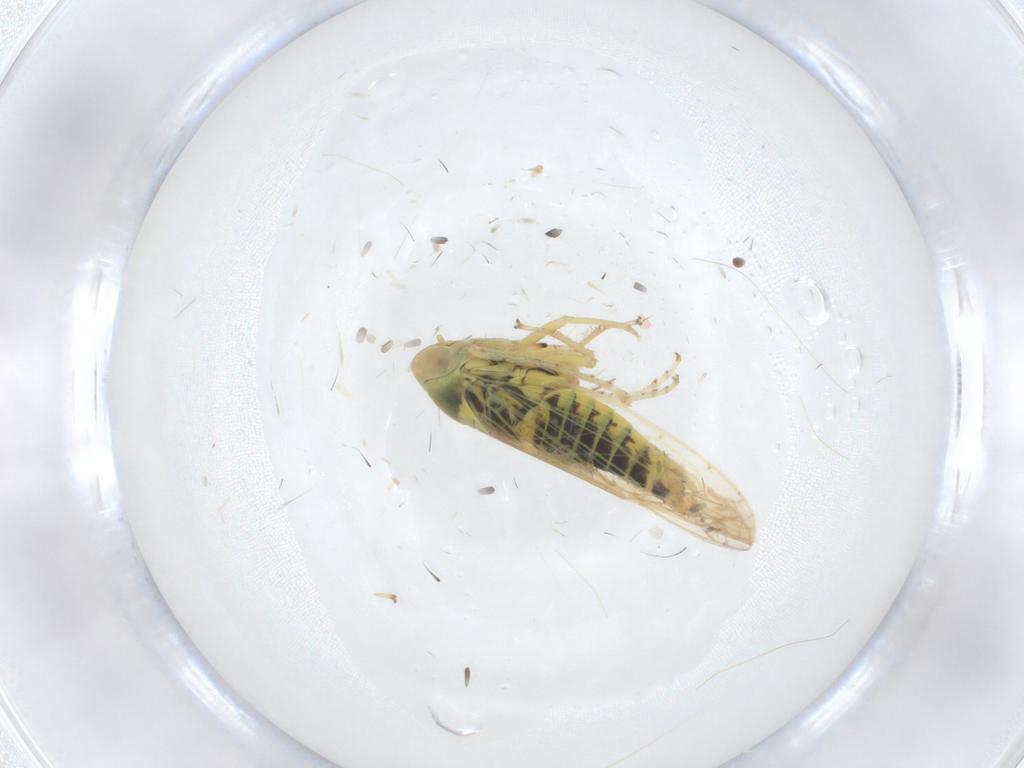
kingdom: Animalia
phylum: Arthropoda
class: Insecta
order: Hemiptera
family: Cicadellidae
